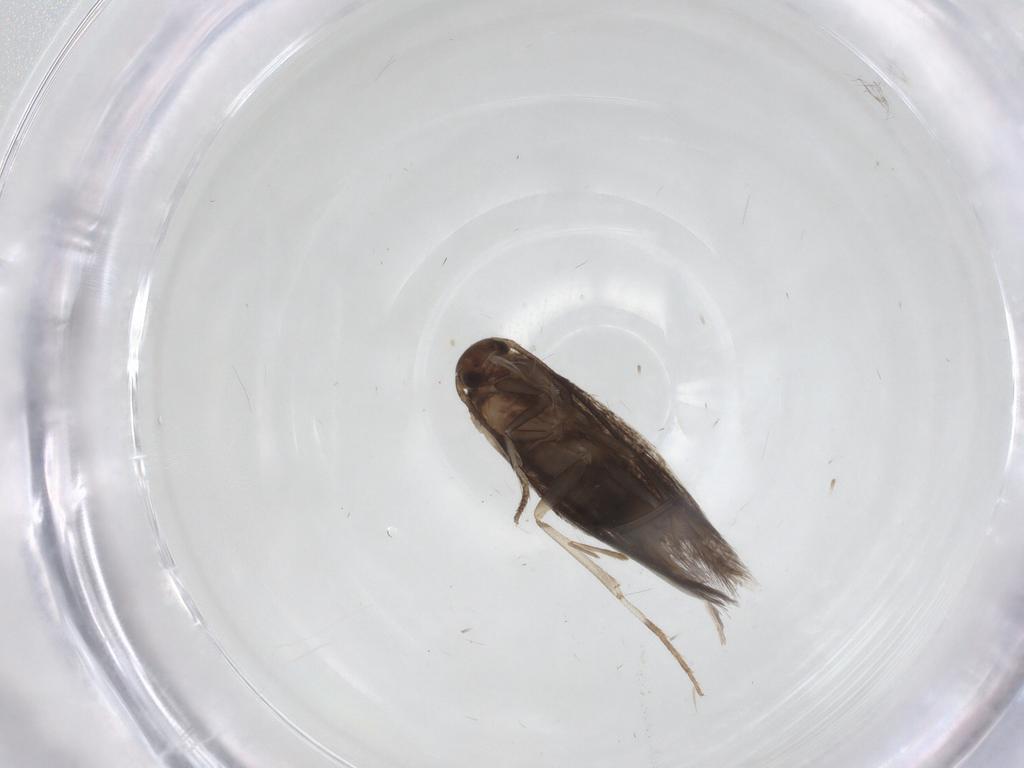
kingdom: Animalia
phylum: Arthropoda
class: Insecta
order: Lepidoptera
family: Elachistidae
